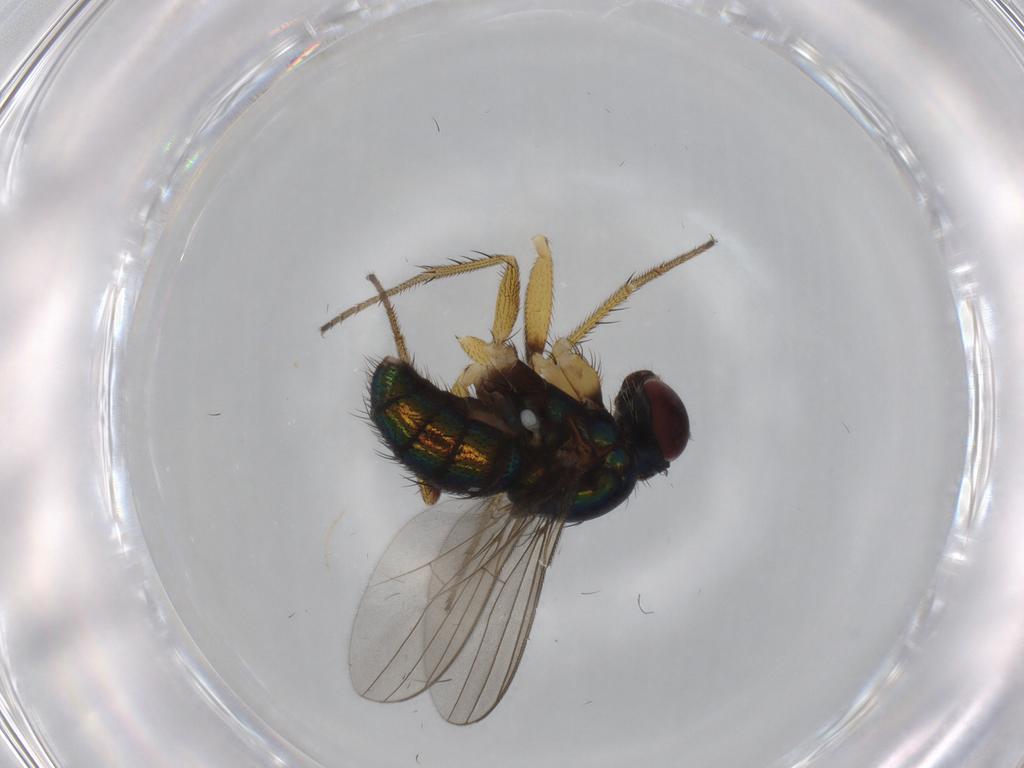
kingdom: Animalia
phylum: Arthropoda
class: Insecta
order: Diptera
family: Dolichopodidae
